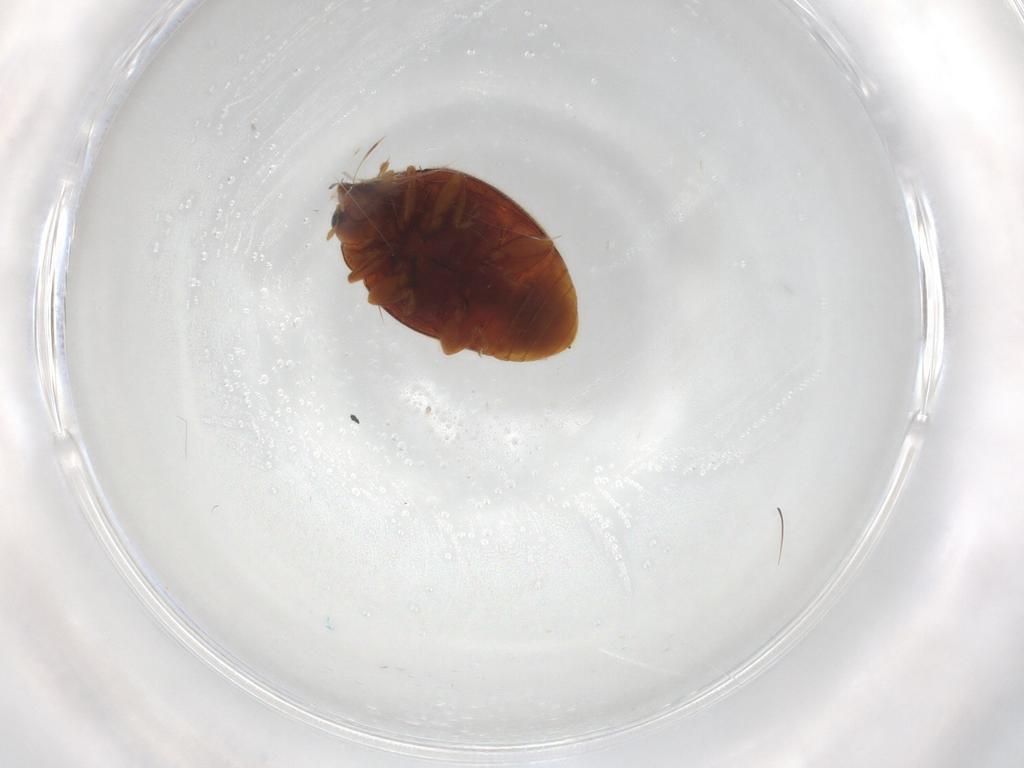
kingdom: Animalia
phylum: Arthropoda
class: Insecta
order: Coleoptera
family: Coccinellidae
